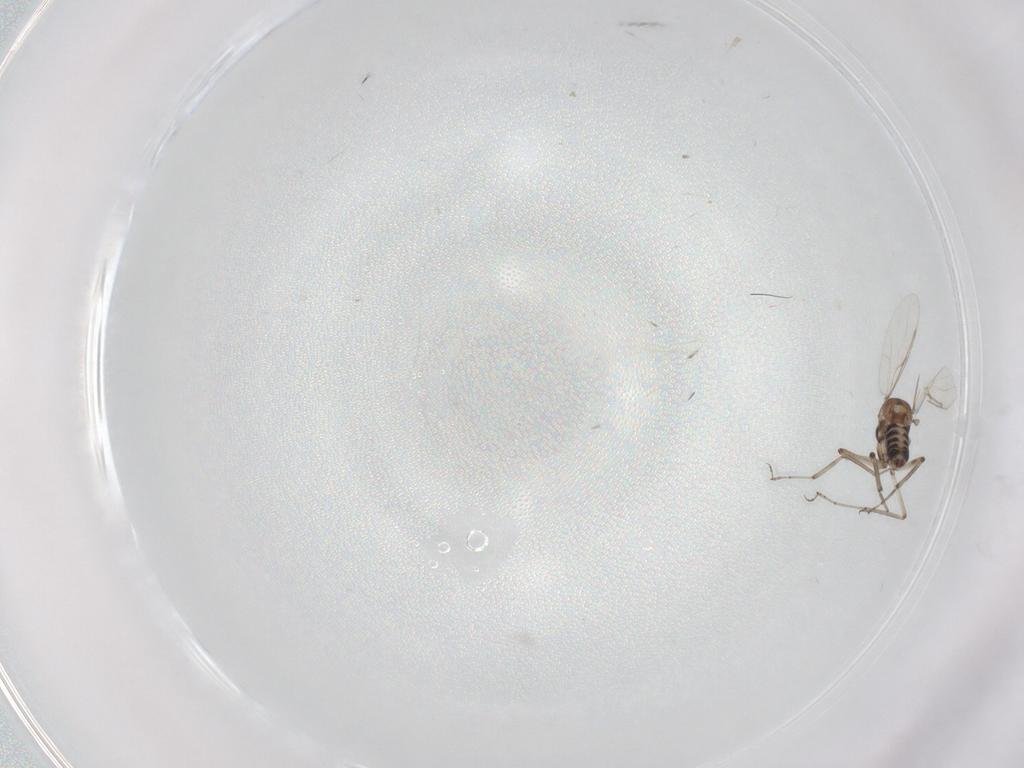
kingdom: Animalia
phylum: Arthropoda
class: Insecta
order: Diptera
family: Ceratopogonidae
